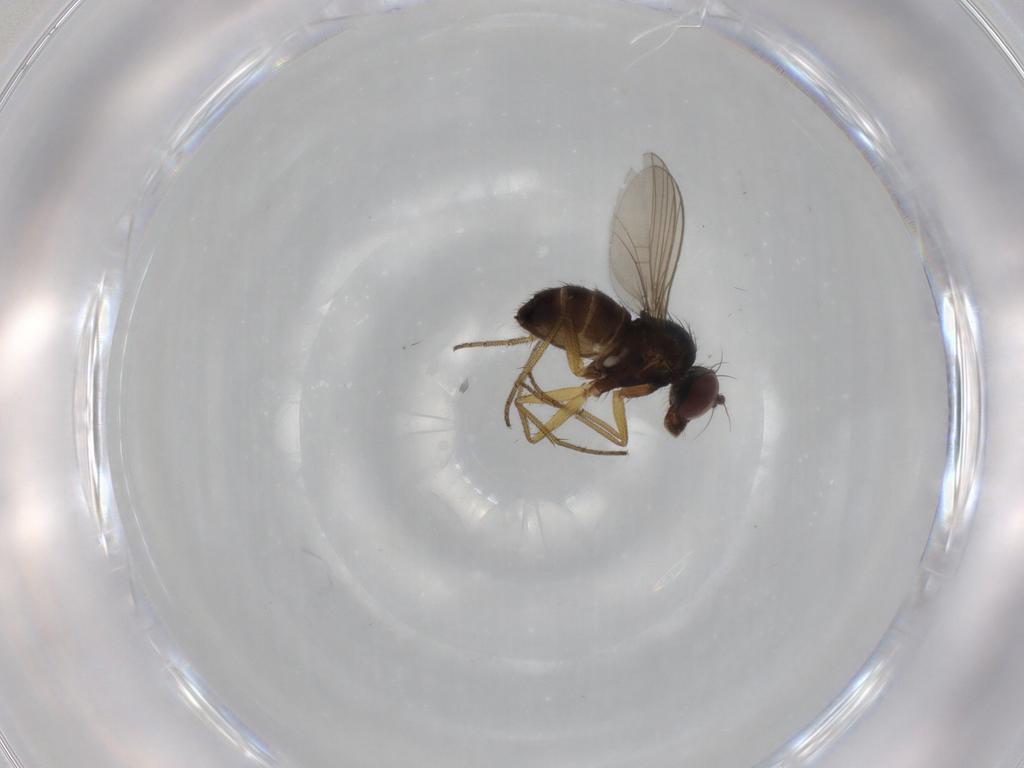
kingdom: Animalia
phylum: Arthropoda
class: Insecta
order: Diptera
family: Dolichopodidae
